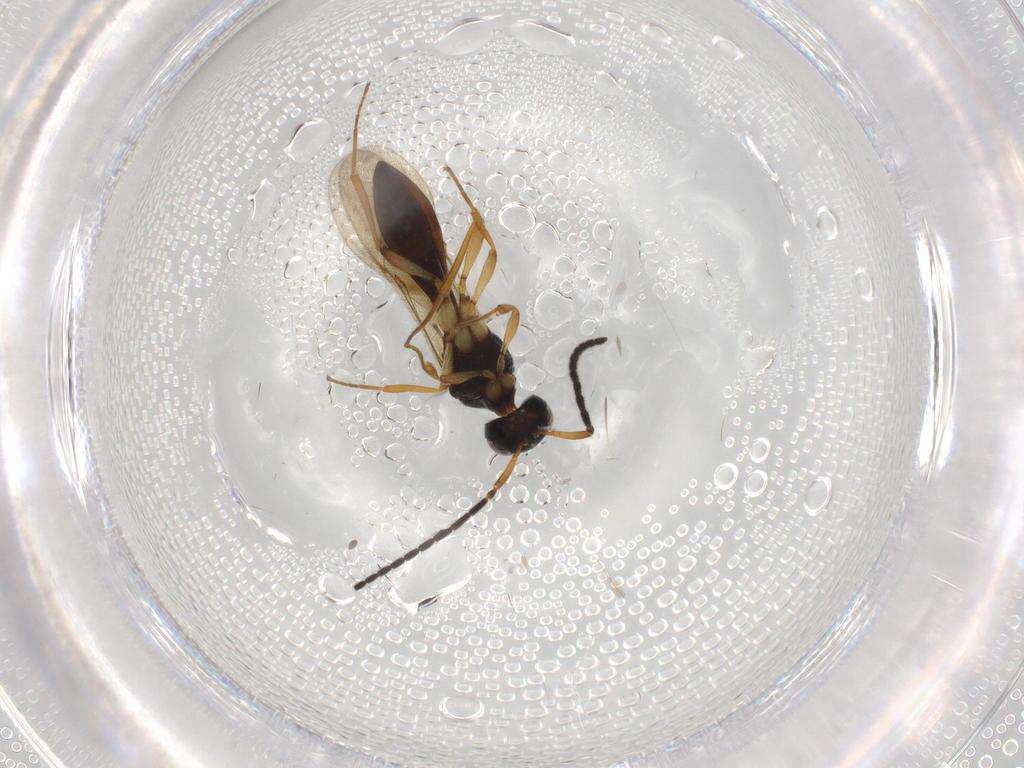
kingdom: Animalia
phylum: Arthropoda
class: Insecta
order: Hymenoptera
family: Scelionidae
